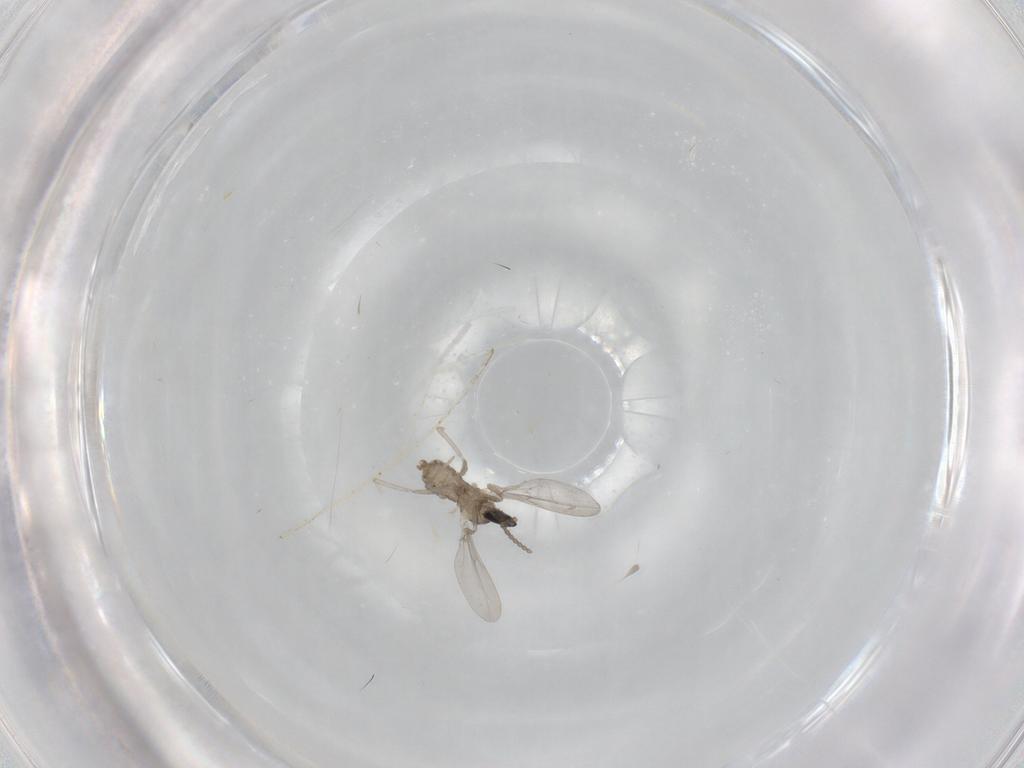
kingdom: Animalia
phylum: Arthropoda
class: Insecta
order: Diptera
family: Cecidomyiidae
